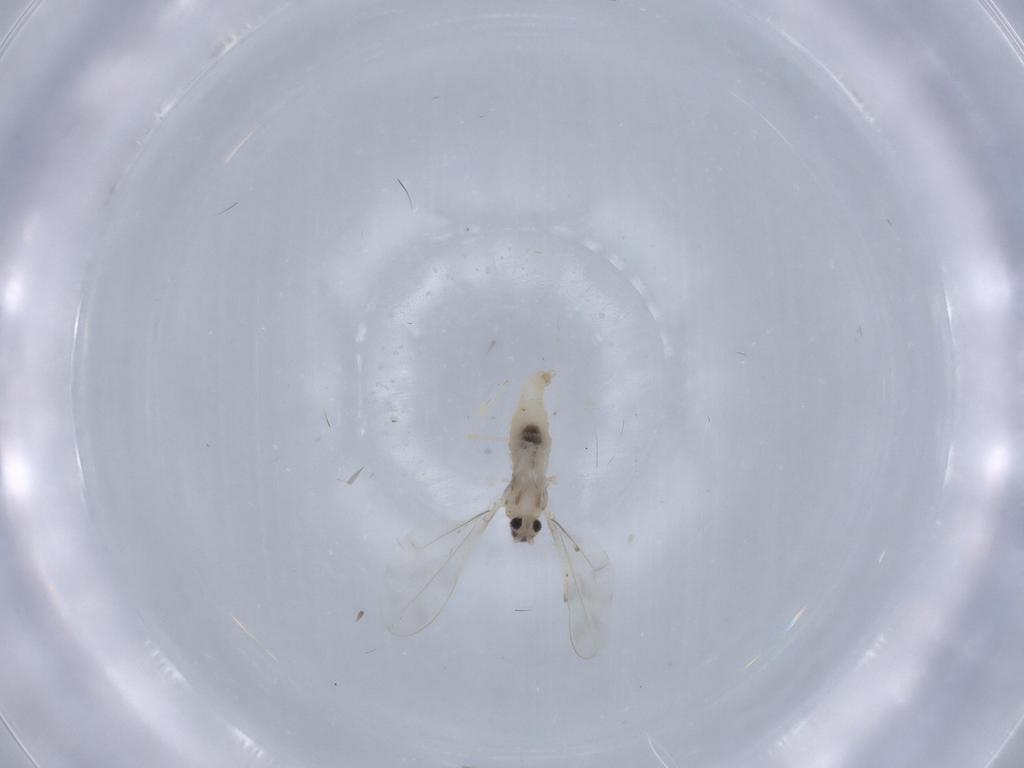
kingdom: Animalia
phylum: Arthropoda
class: Insecta
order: Diptera
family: Cecidomyiidae
